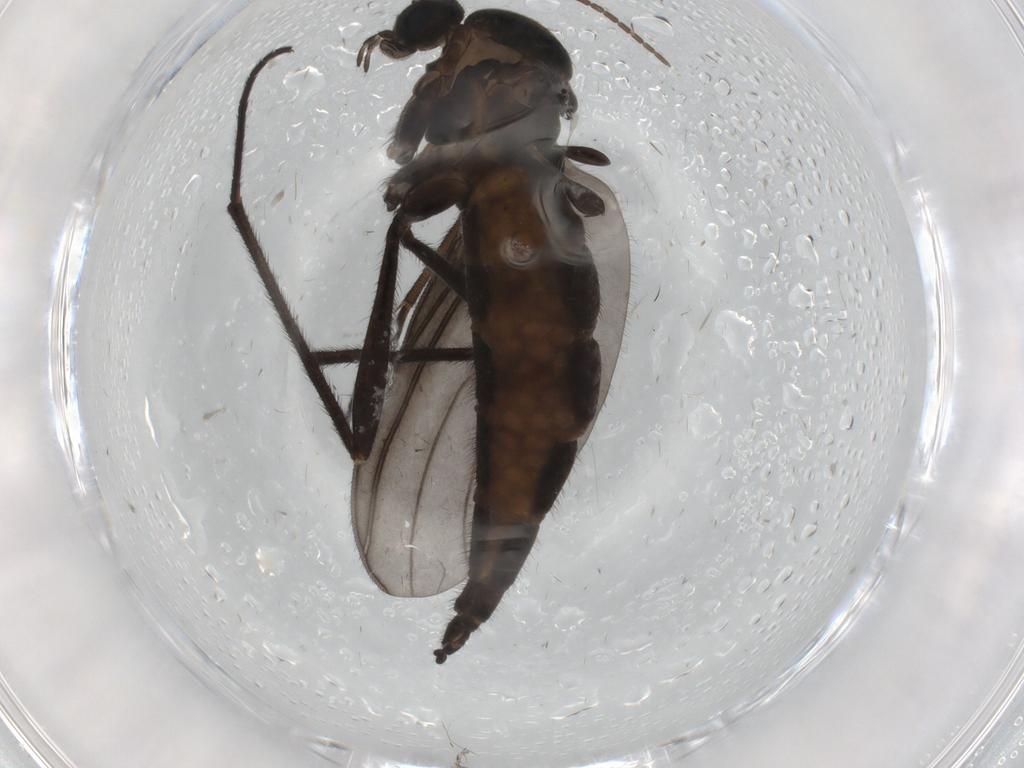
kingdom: Animalia
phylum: Arthropoda
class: Insecta
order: Diptera
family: Sciaridae
